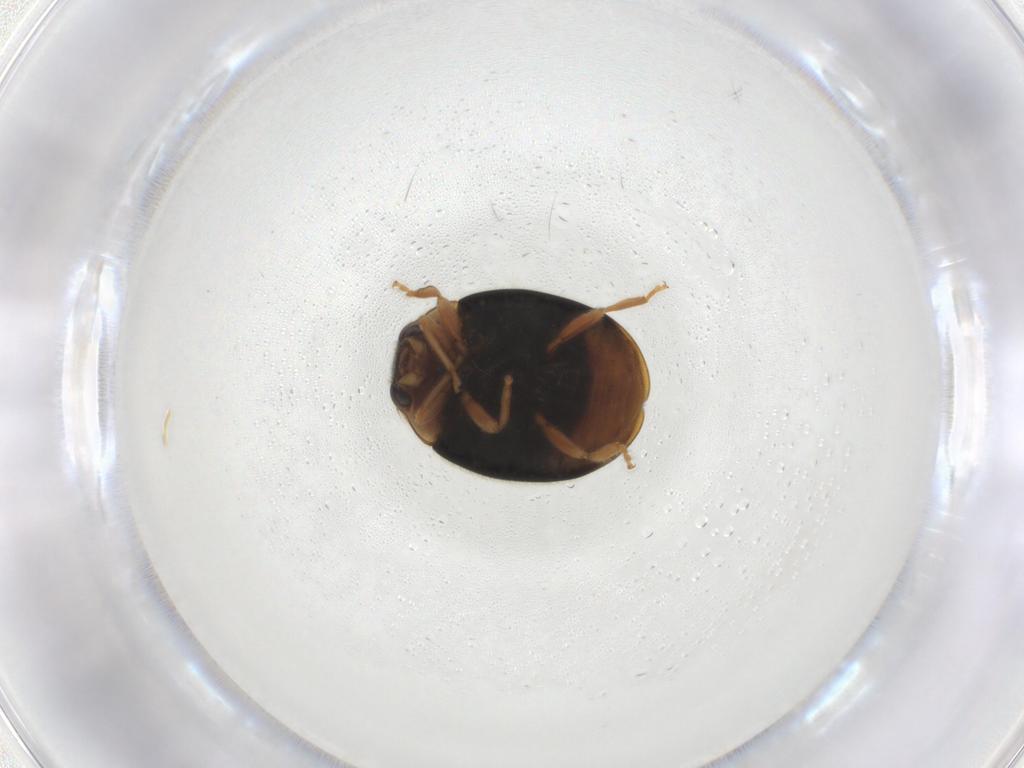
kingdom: Animalia
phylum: Arthropoda
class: Insecta
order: Coleoptera
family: Coccinellidae
